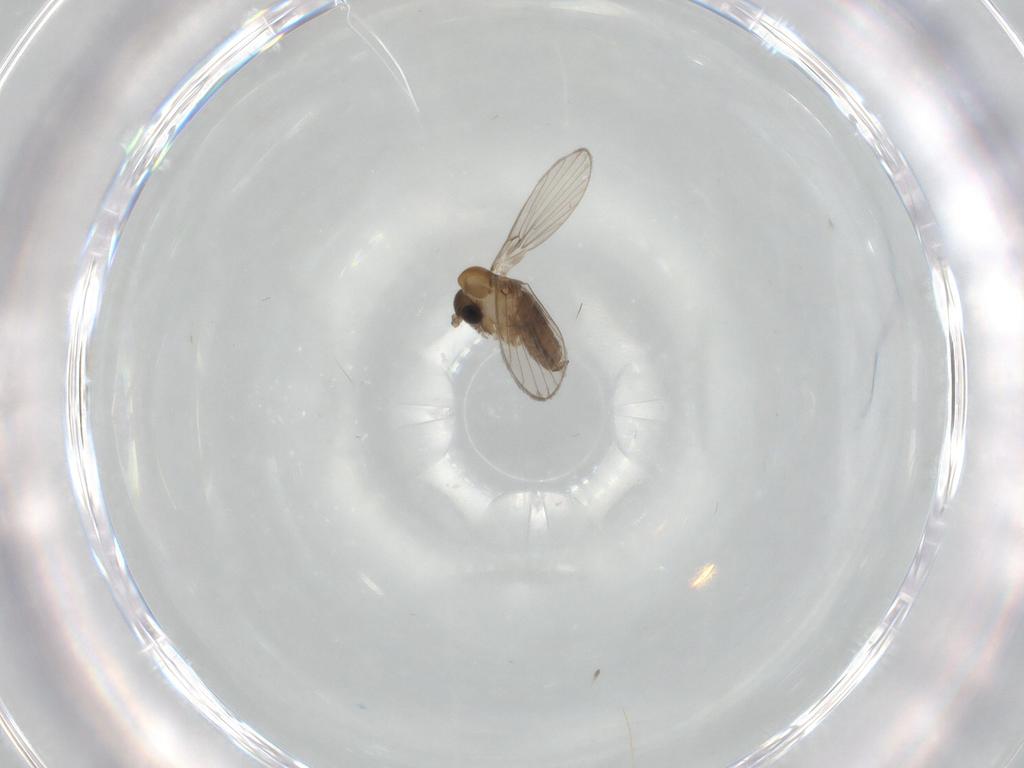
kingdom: Animalia
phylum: Arthropoda
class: Insecta
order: Diptera
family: Psychodidae
